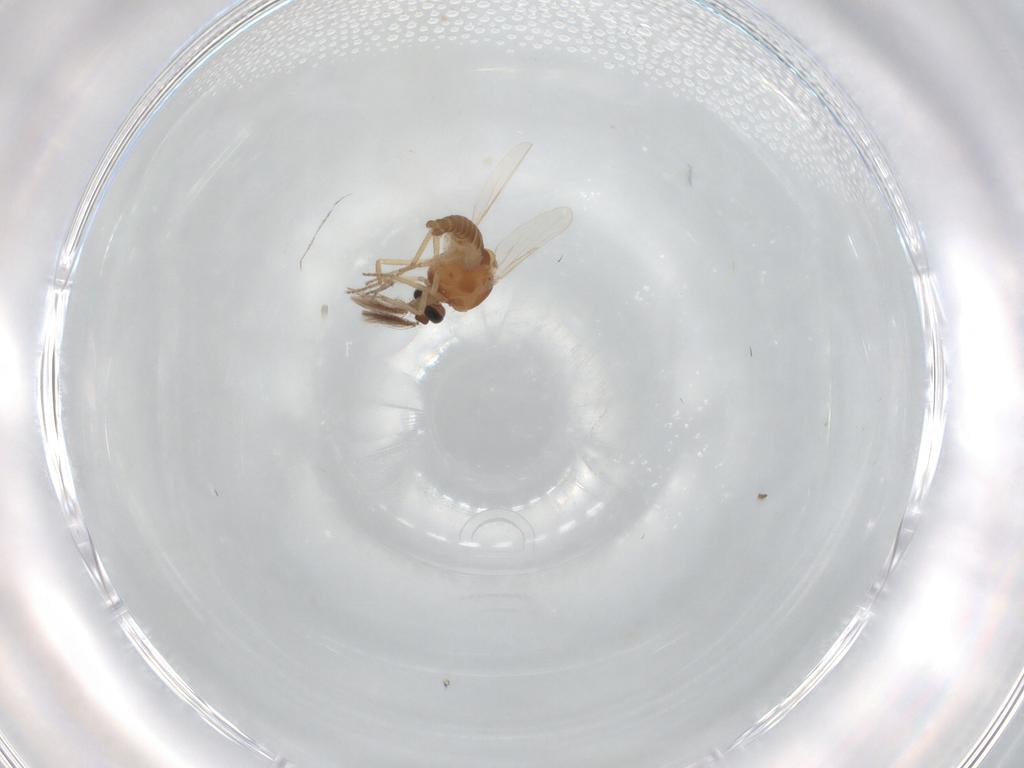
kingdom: Animalia
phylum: Arthropoda
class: Insecta
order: Diptera
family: Ceratopogonidae
